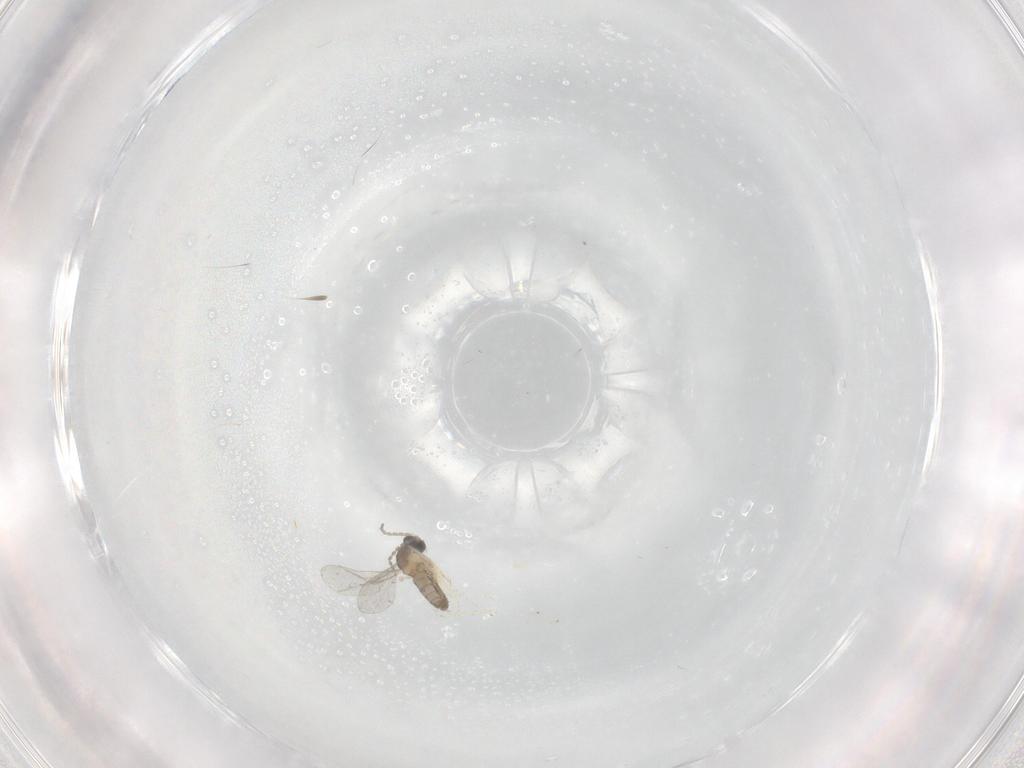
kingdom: Animalia
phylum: Arthropoda
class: Insecta
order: Diptera
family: Cecidomyiidae
